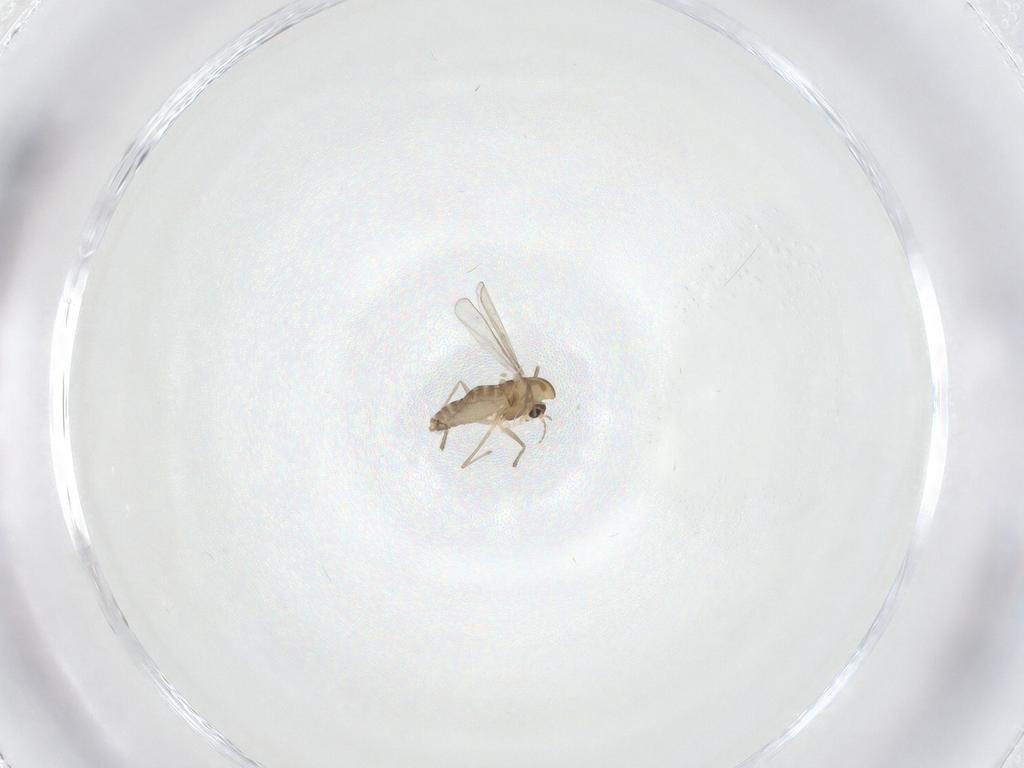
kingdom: Animalia
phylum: Arthropoda
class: Insecta
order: Diptera
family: Chironomidae
